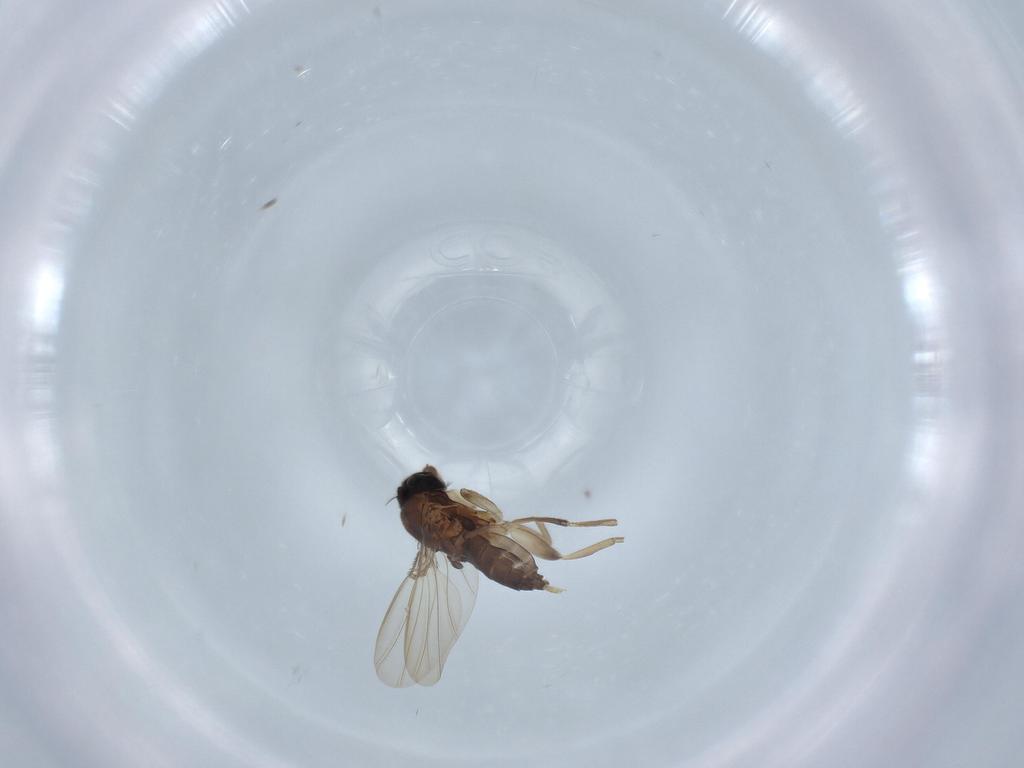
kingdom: Animalia
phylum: Arthropoda
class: Insecta
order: Diptera
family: Phoridae
